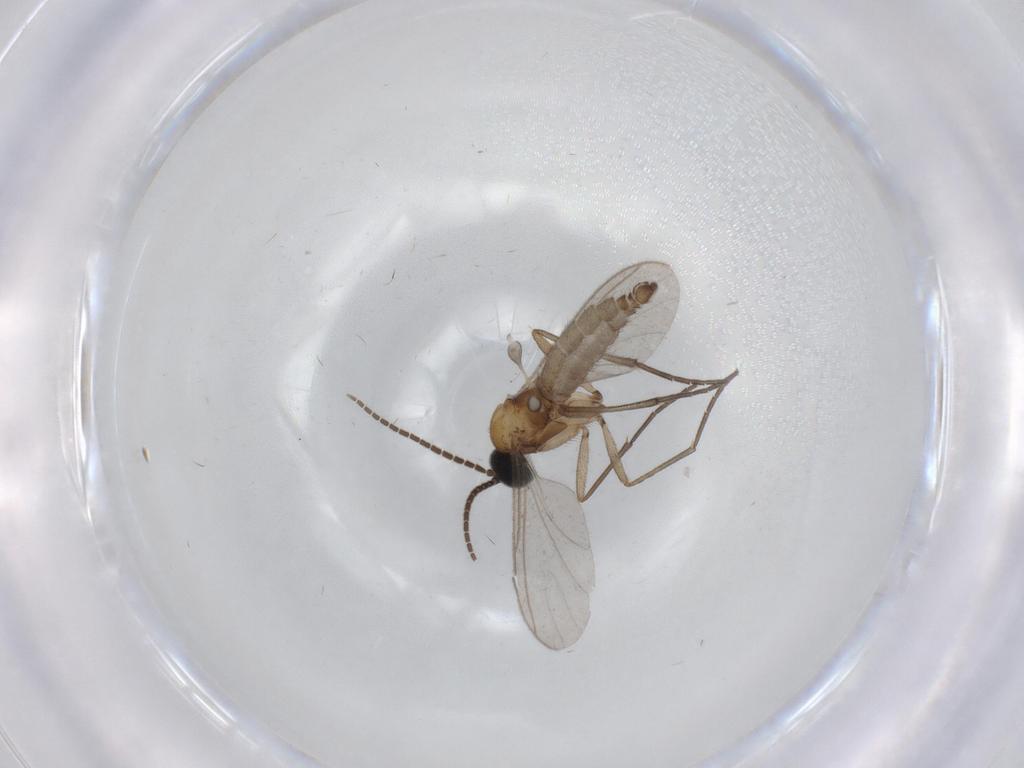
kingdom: Animalia
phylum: Arthropoda
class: Insecta
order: Diptera
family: Sciaridae
